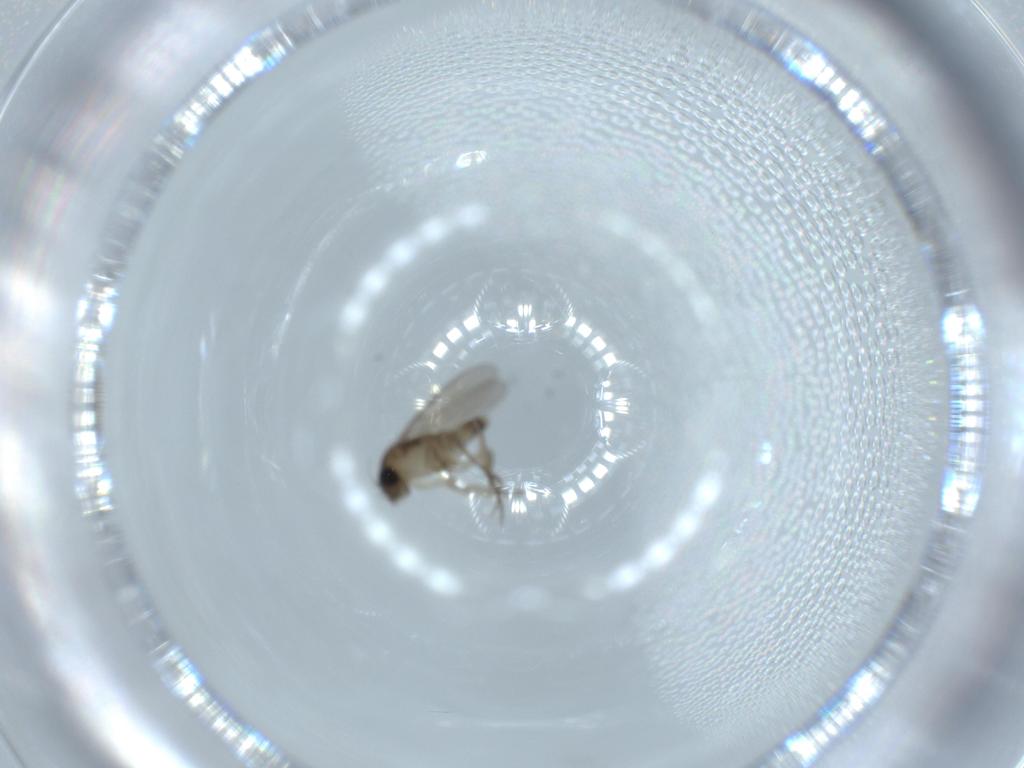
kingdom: Animalia
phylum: Arthropoda
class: Insecta
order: Diptera
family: Phoridae
